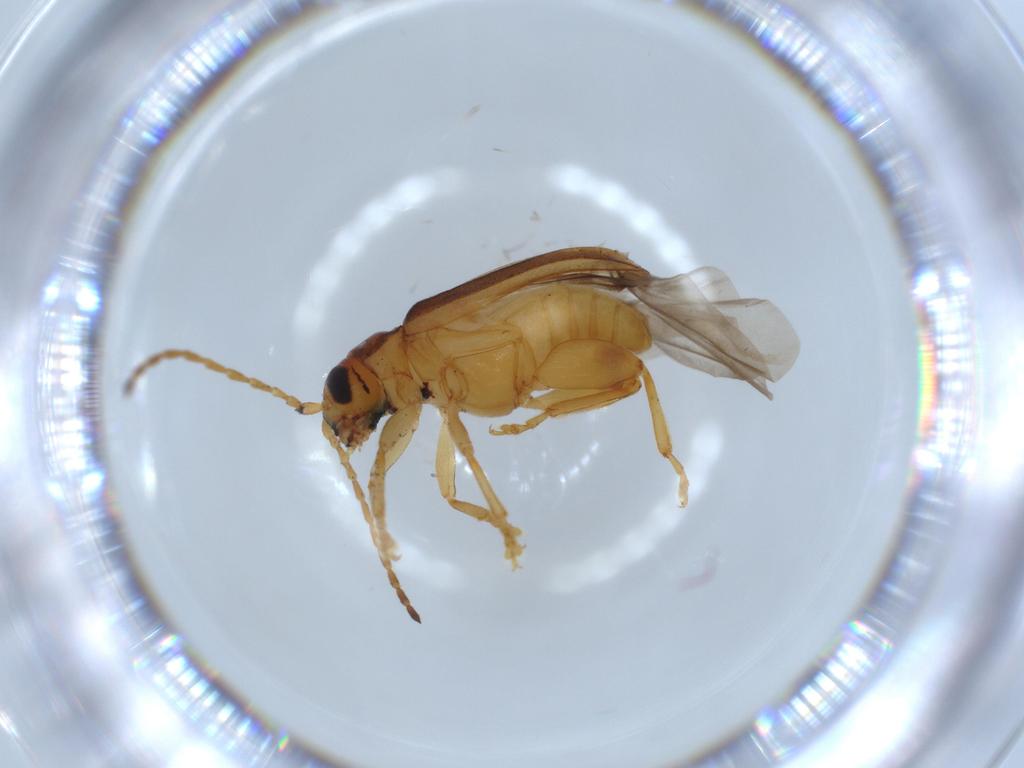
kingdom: Animalia
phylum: Arthropoda
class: Insecta
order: Coleoptera
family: Chrysomelidae
